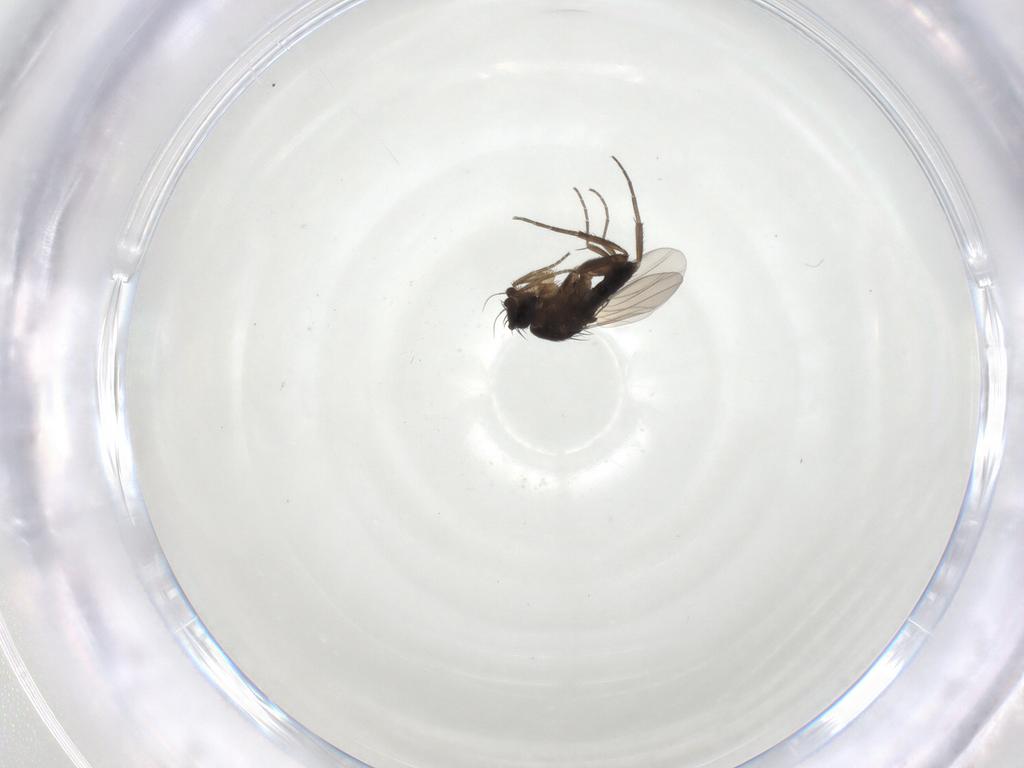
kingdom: Animalia
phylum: Arthropoda
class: Insecta
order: Diptera
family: Phoridae
